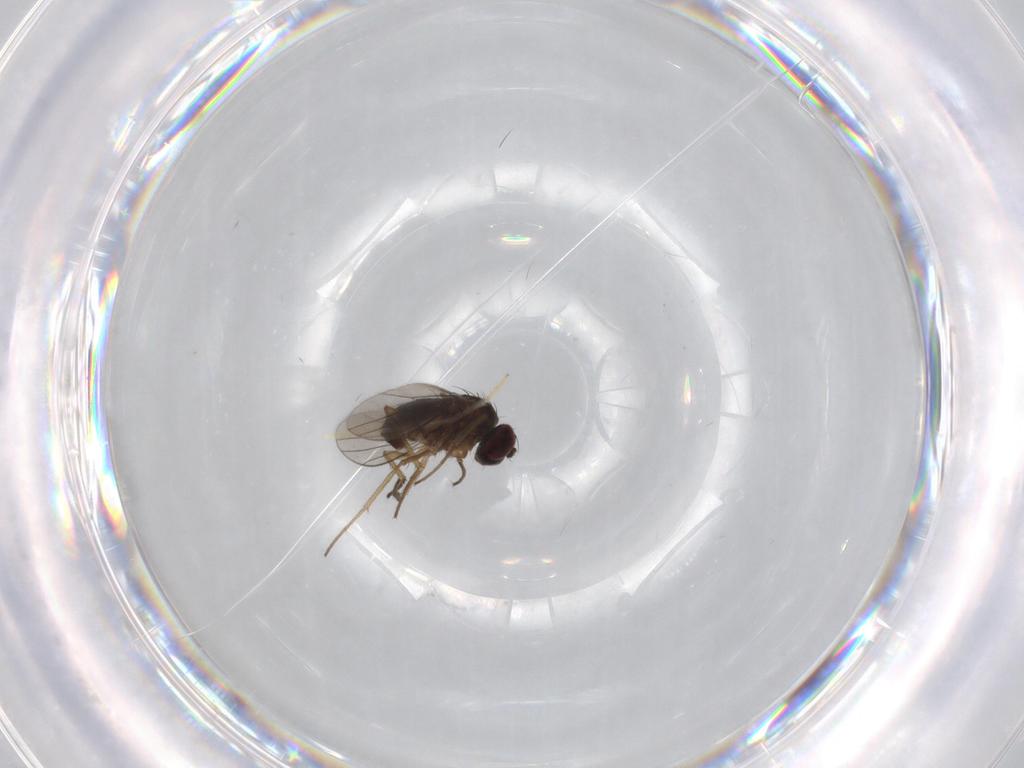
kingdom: Animalia
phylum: Arthropoda
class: Insecta
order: Diptera
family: Dolichopodidae
